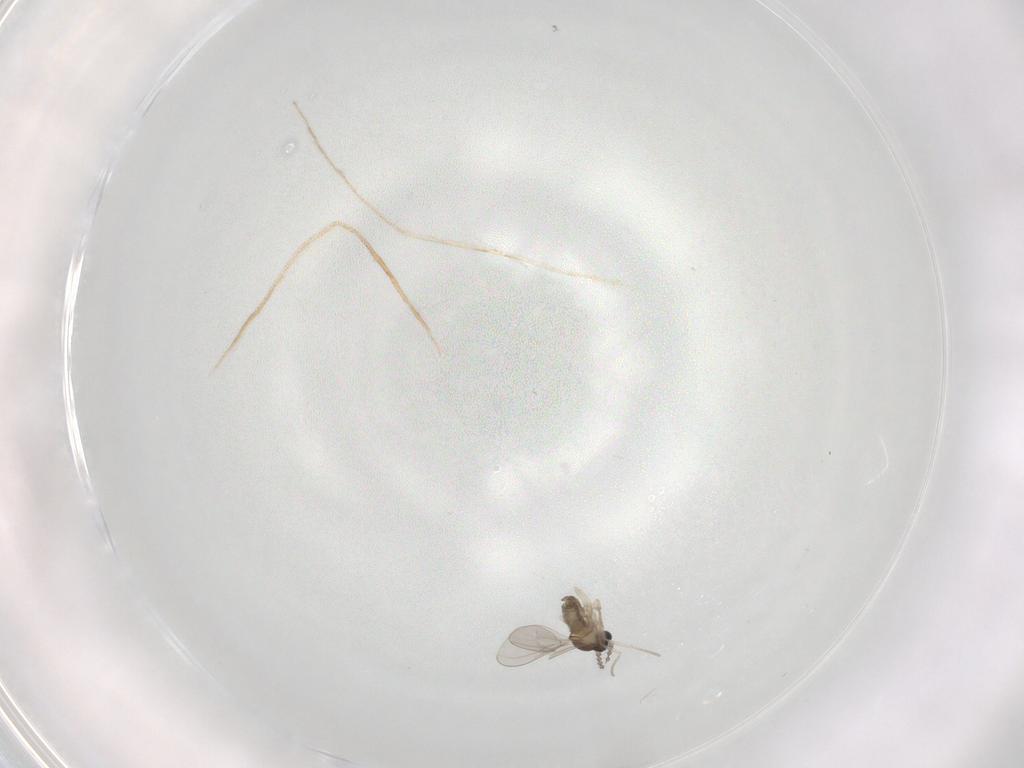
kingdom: Animalia
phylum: Arthropoda
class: Insecta
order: Diptera
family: Cecidomyiidae
